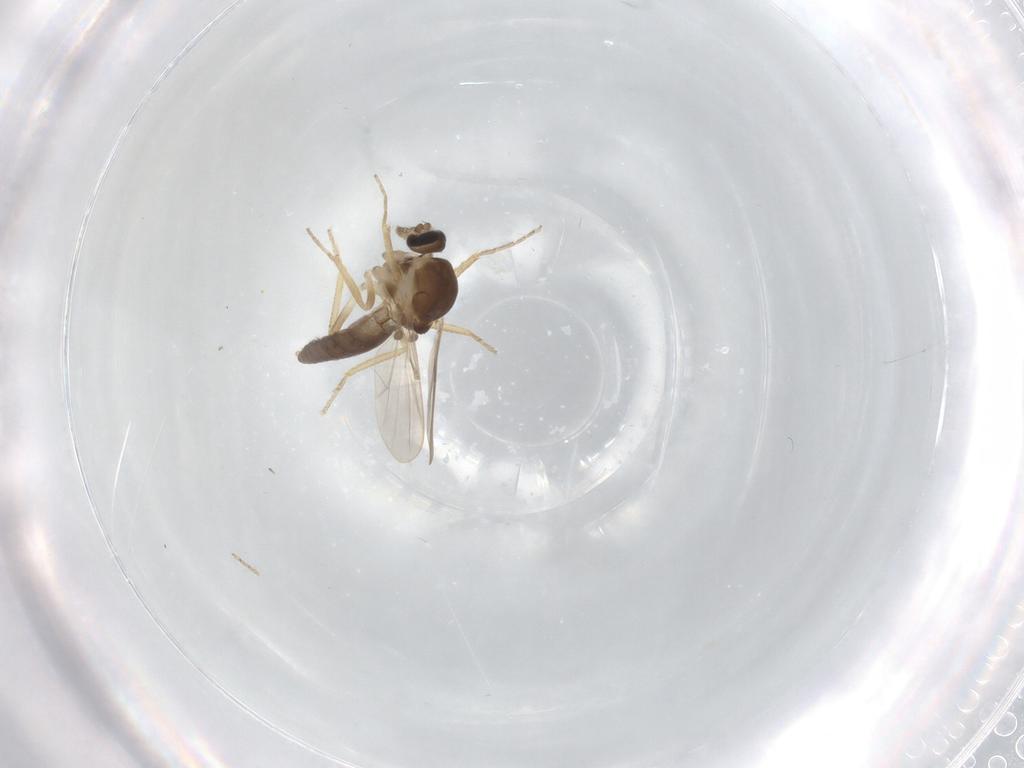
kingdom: Animalia
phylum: Arthropoda
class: Insecta
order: Diptera
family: Ceratopogonidae
